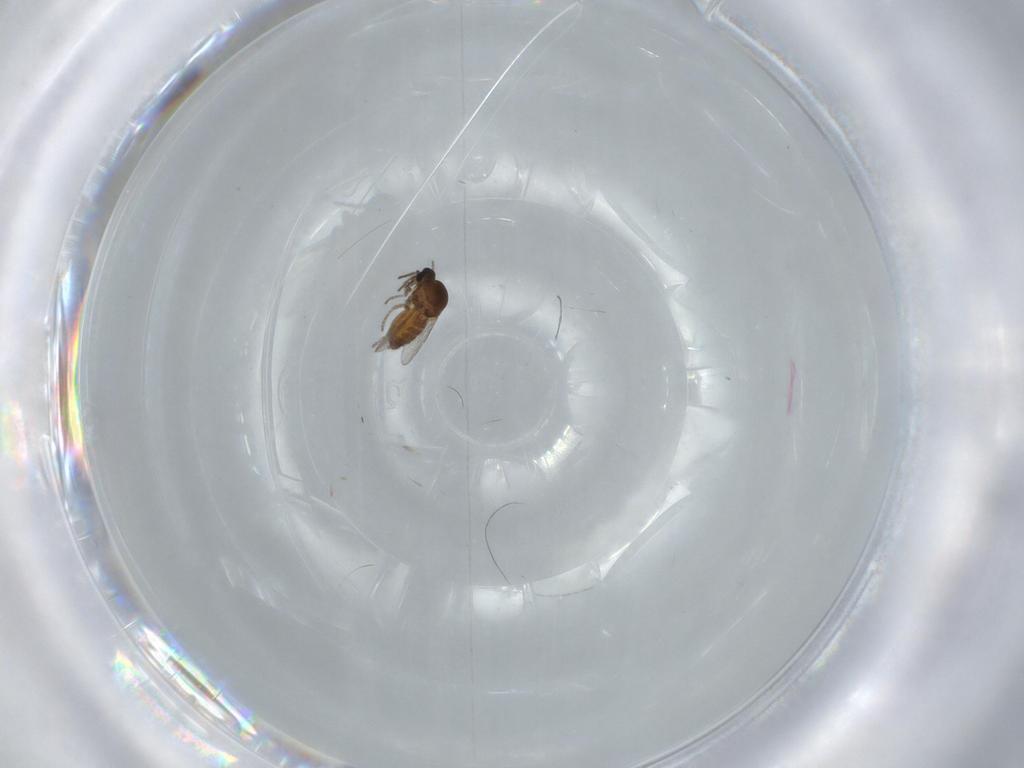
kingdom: Animalia
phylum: Arthropoda
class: Insecta
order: Diptera
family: Ceratopogonidae
